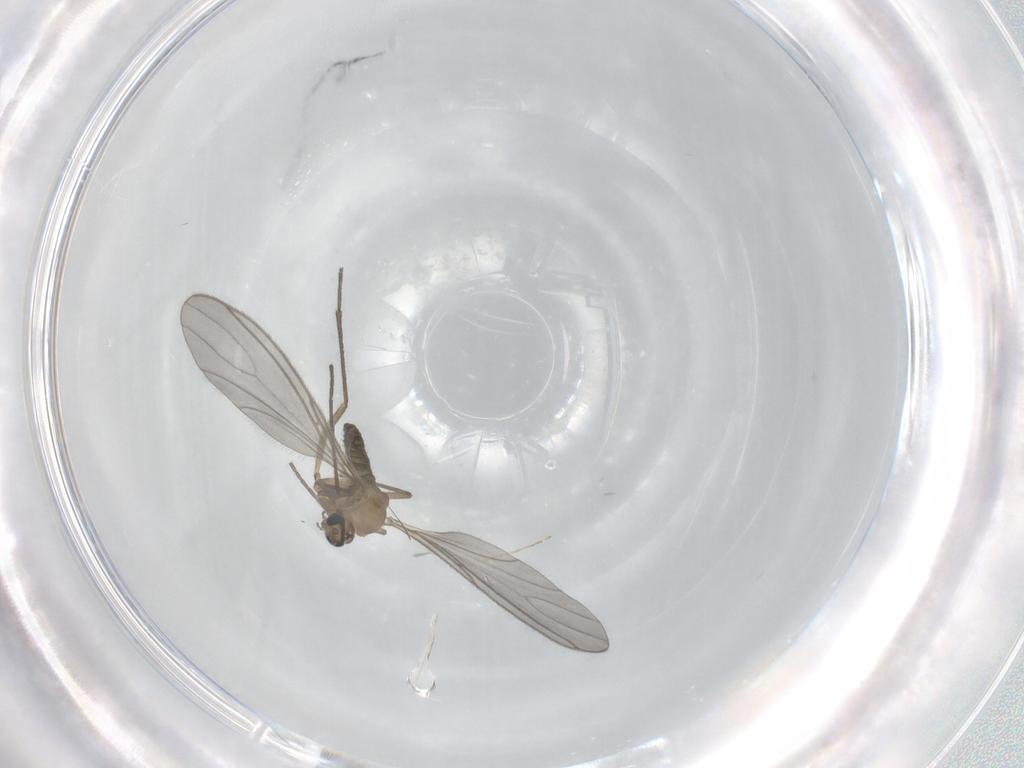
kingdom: Animalia
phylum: Arthropoda
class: Insecta
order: Diptera
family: Sciaridae
